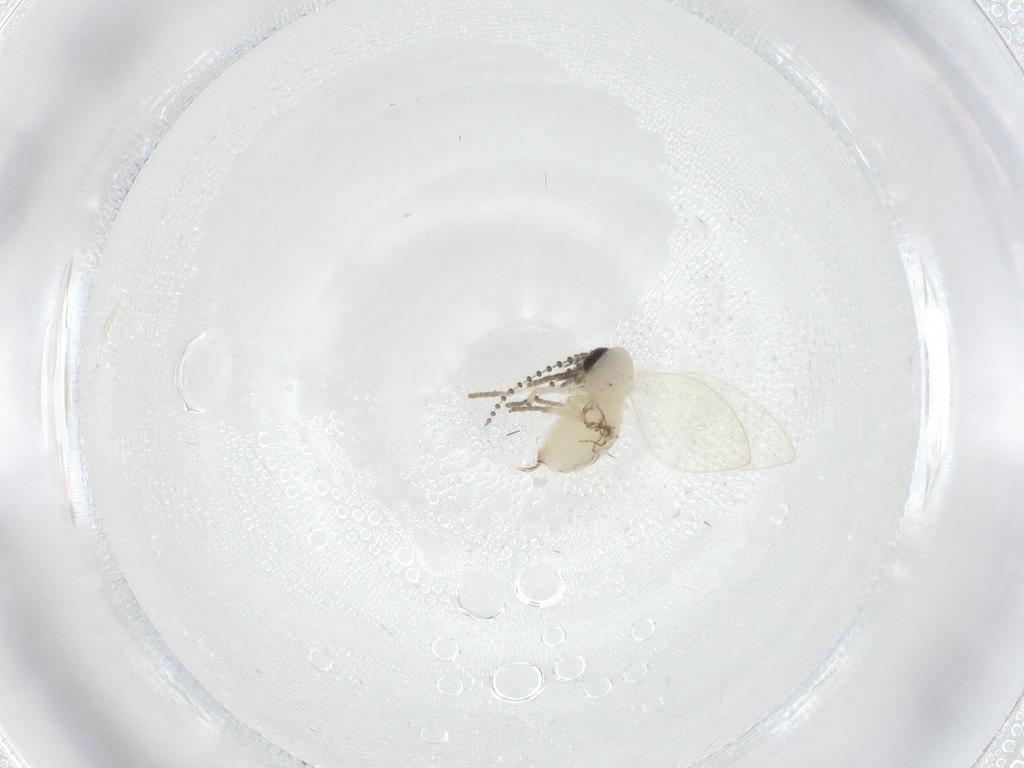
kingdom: Animalia
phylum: Arthropoda
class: Insecta
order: Diptera
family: Psychodidae
